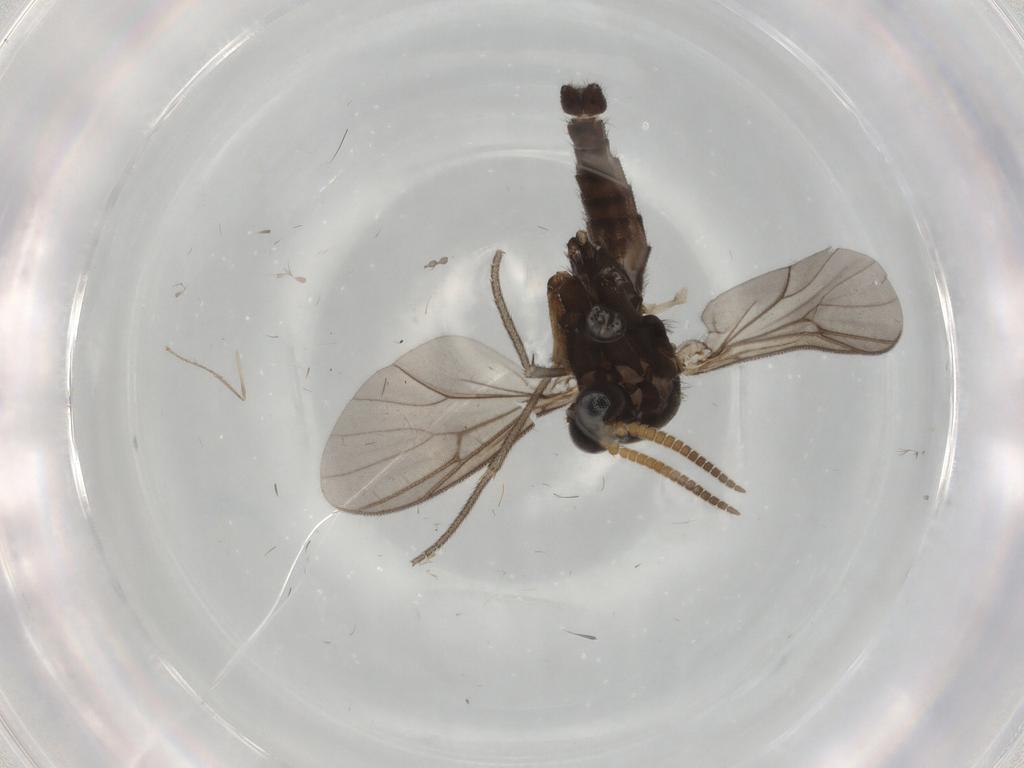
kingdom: Animalia
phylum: Arthropoda
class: Insecta
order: Diptera
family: Mycetophilidae
